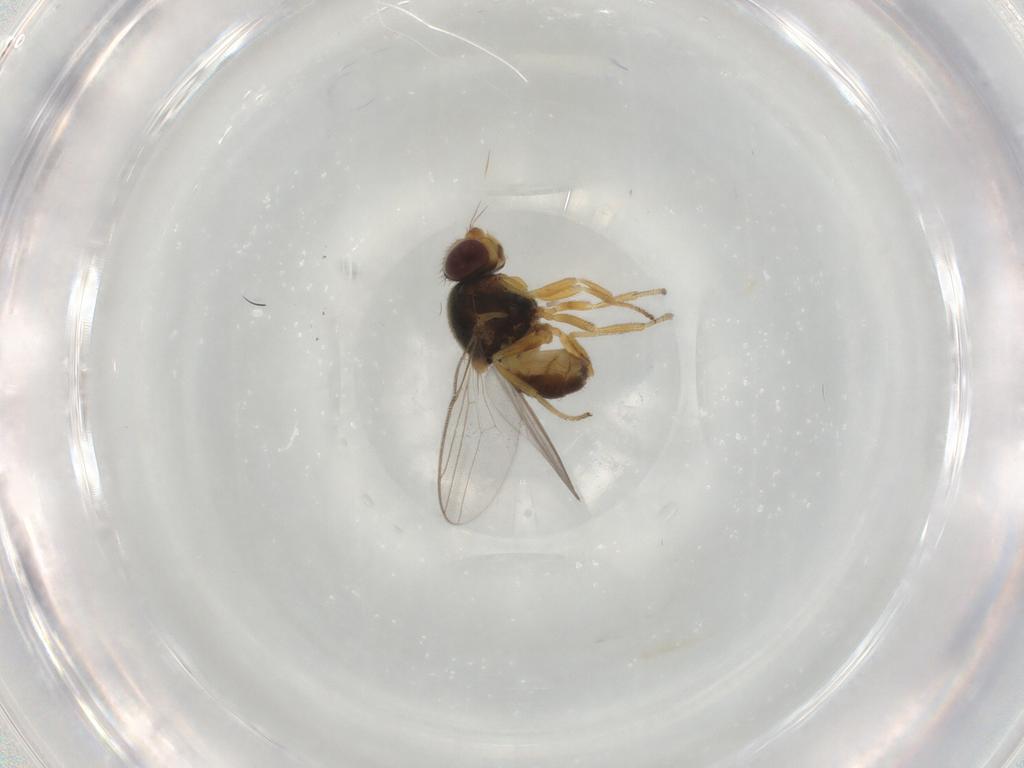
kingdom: Animalia
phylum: Arthropoda
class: Insecta
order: Diptera
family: Chloropidae
